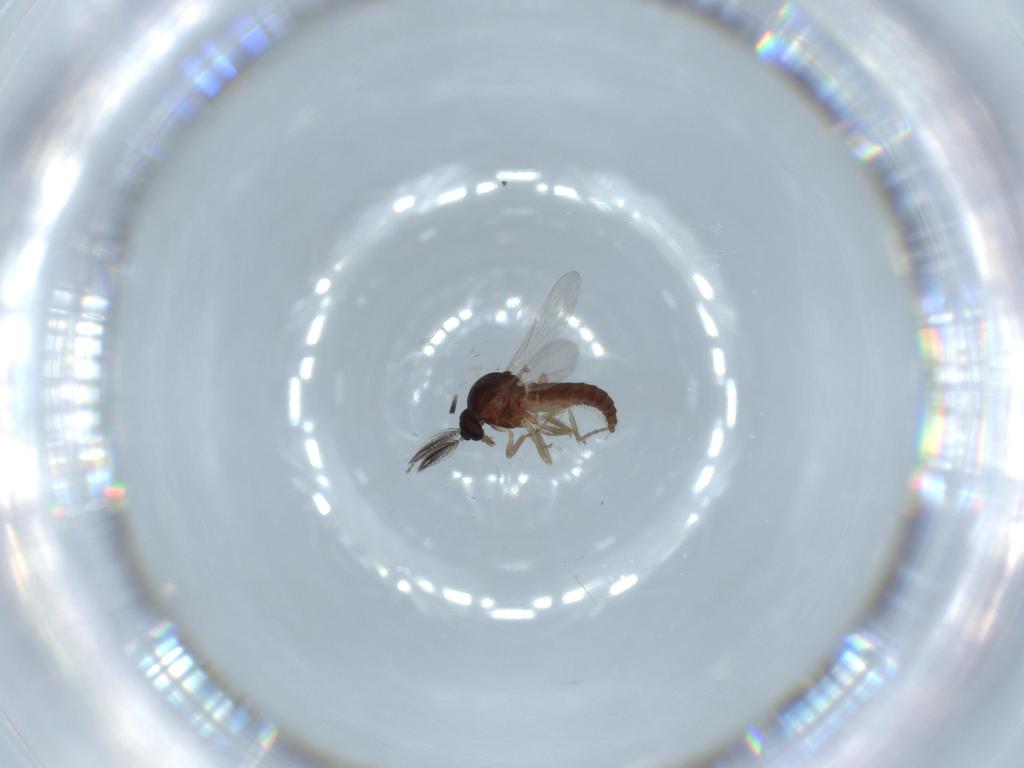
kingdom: Animalia
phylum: Arthropoda
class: Insecta
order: Diptera
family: Ceratopogonidae
